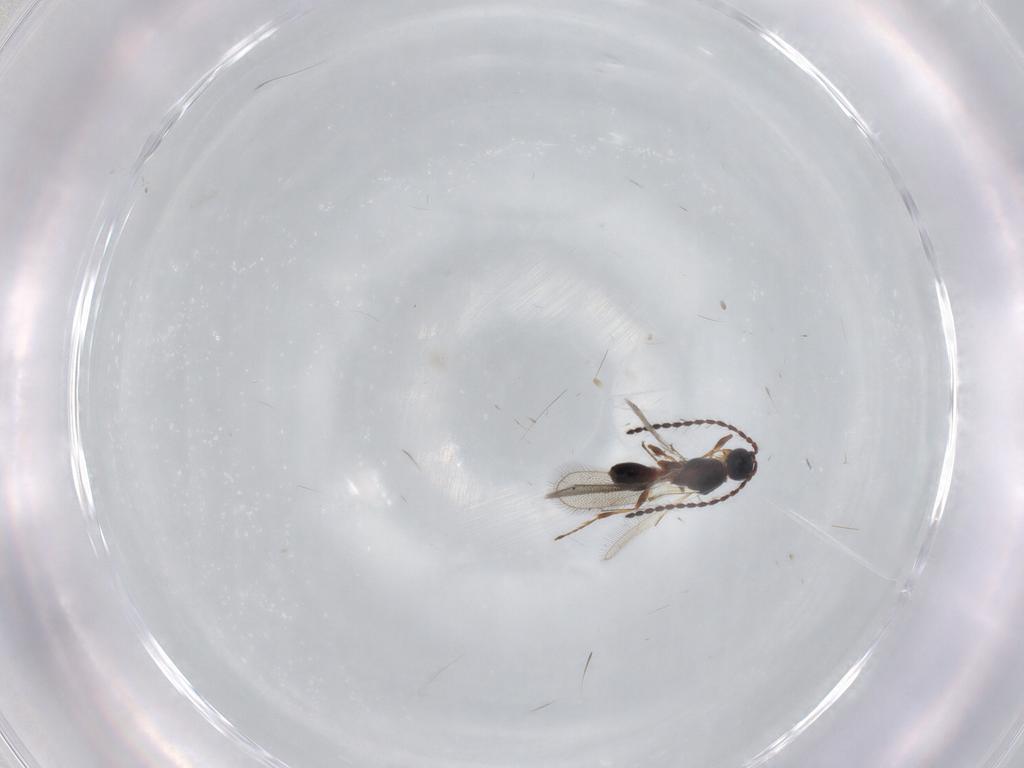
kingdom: Animalia
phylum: Arthropoda
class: Insecta
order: Hymenoptera
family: Diapriidae
